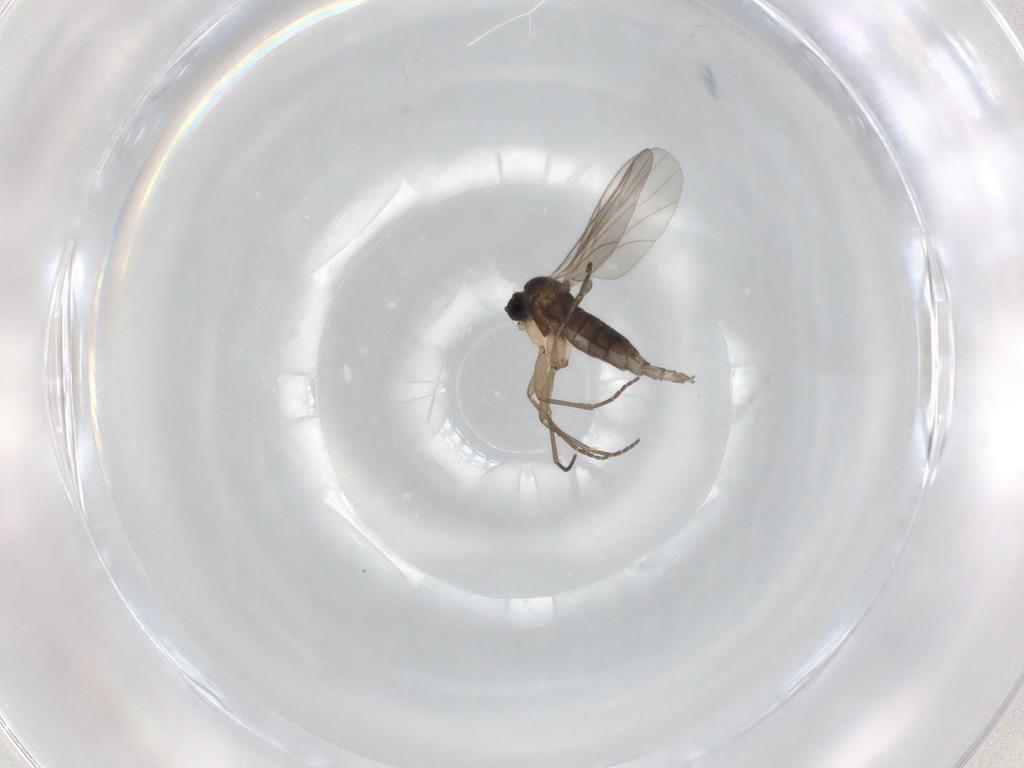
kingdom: Animalia
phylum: Arthropoda
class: Insecta
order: Diptera
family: Sciaridae
